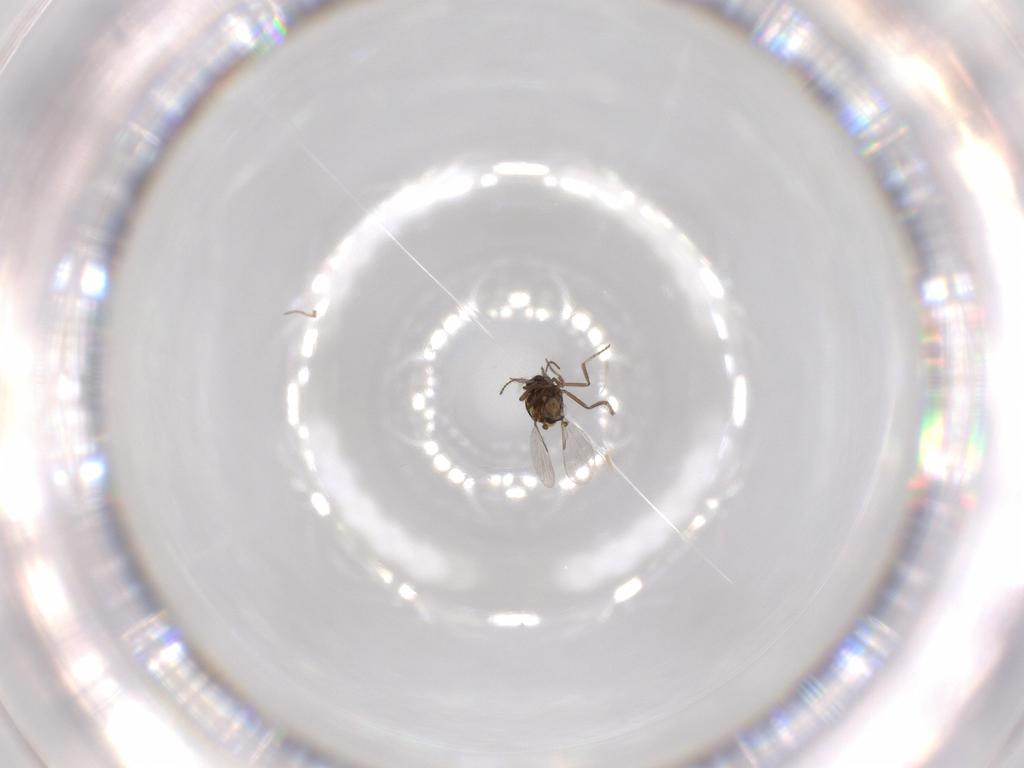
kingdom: Animalia
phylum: Arthropoda
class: Insecta
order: Diptera
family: Ceratopogonidae
